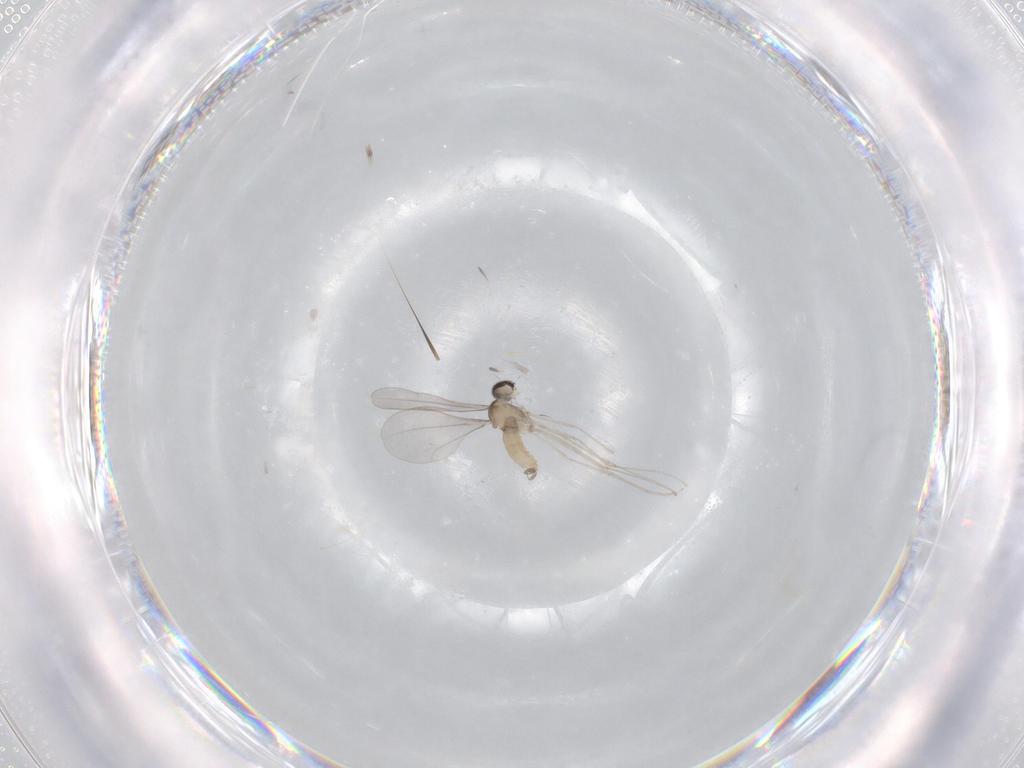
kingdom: Animalia
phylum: Arthropoda
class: Insecta
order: Diptera
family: Cecidomyiidae
